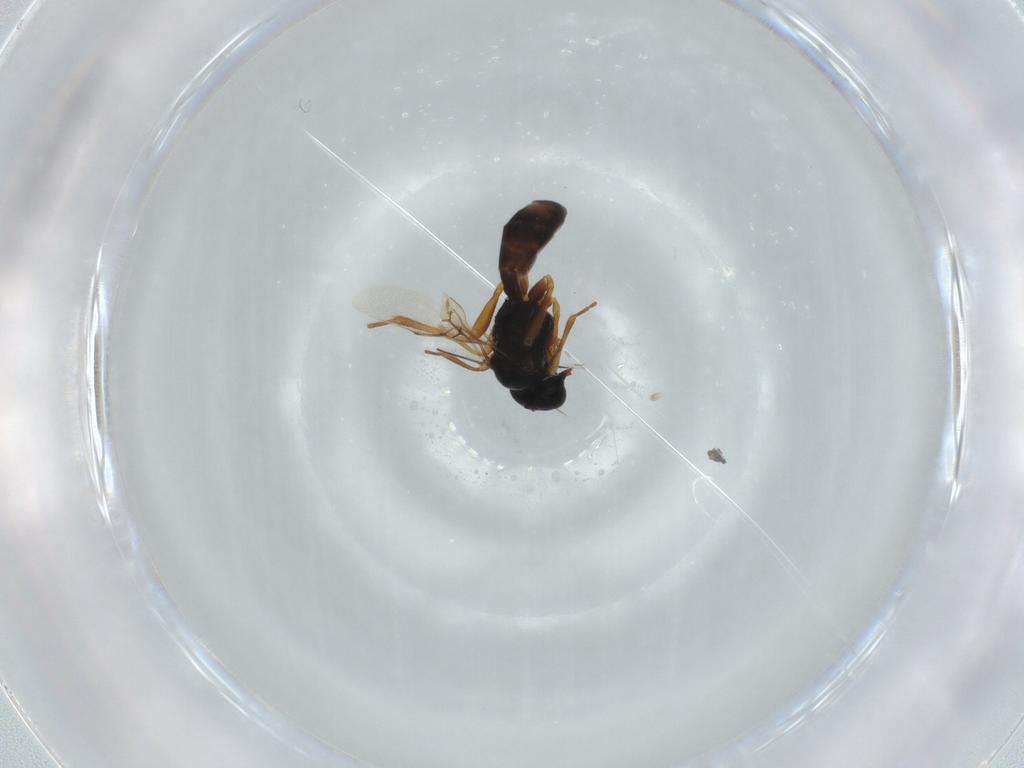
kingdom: Animalia
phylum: Arthropoda
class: Insecta
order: Hymenoptera
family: Braconidae
